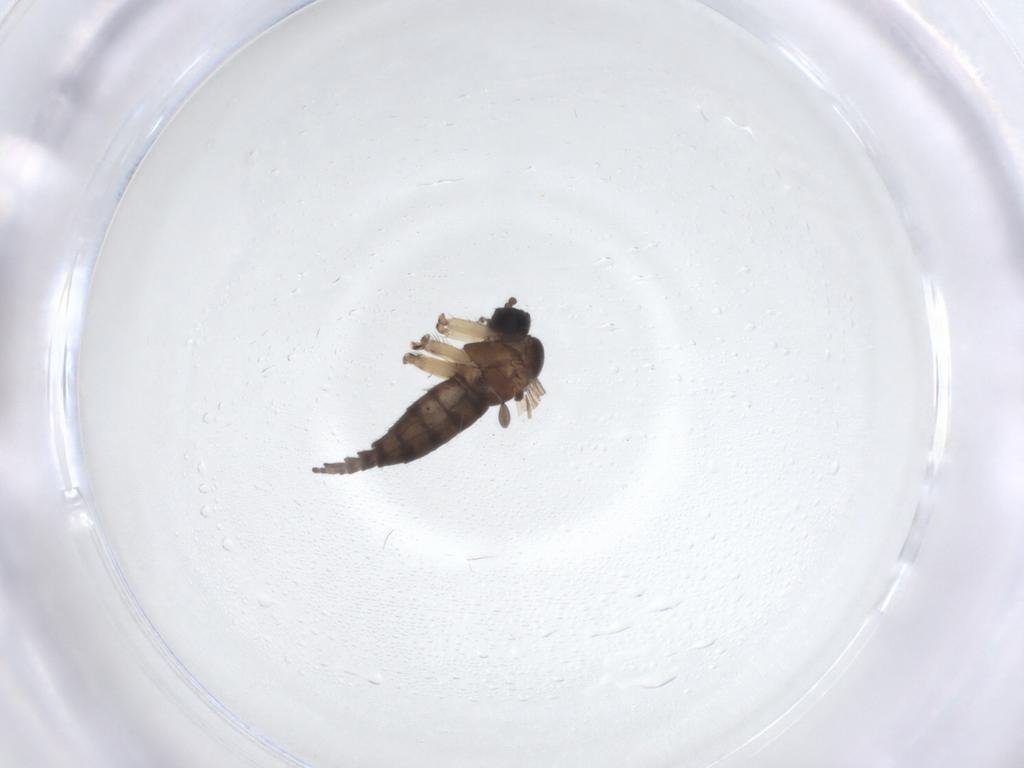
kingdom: Animalia
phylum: Arthropoda
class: Insecta
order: Diptera
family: Sciaridae
